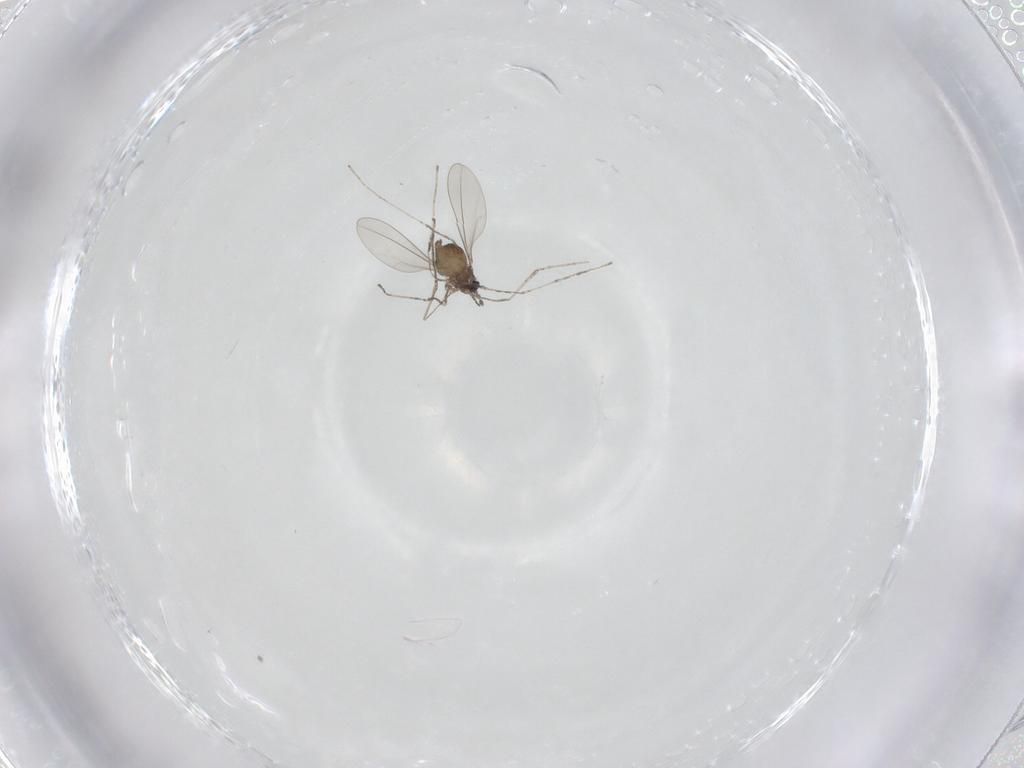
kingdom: Animalia
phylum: Arthropoda
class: Insecta
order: Diptera
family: Cecidomyiidae
